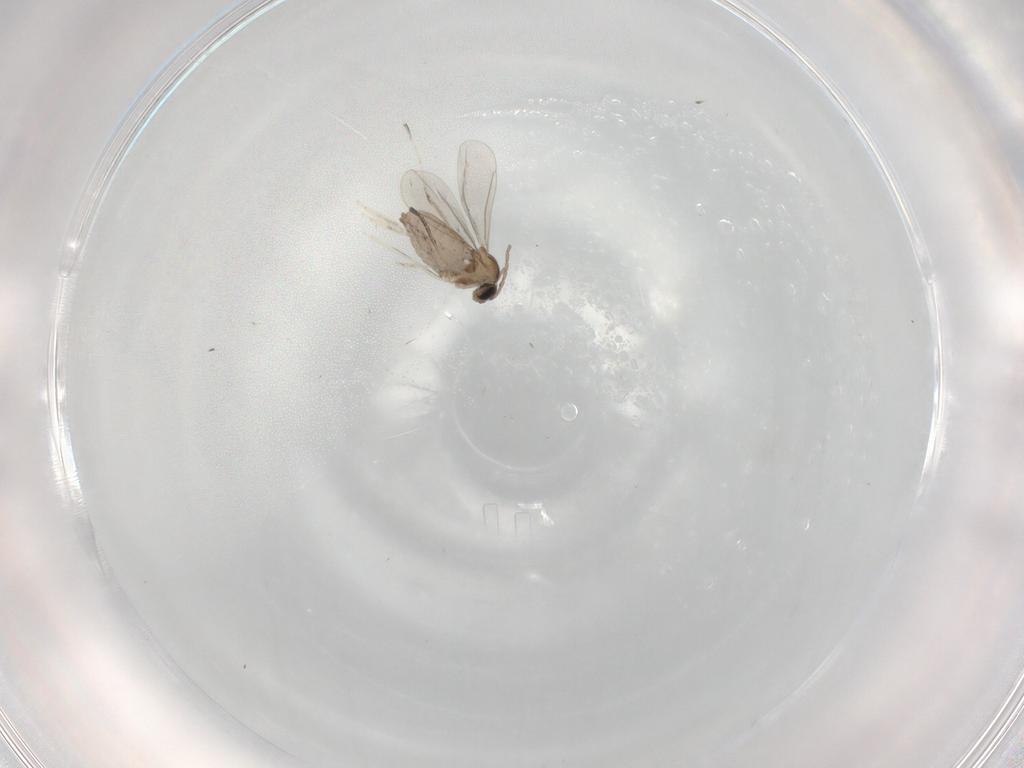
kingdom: Animalia
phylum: Arthropoda
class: Insecta
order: Diptera
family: Cecidomyiidae
